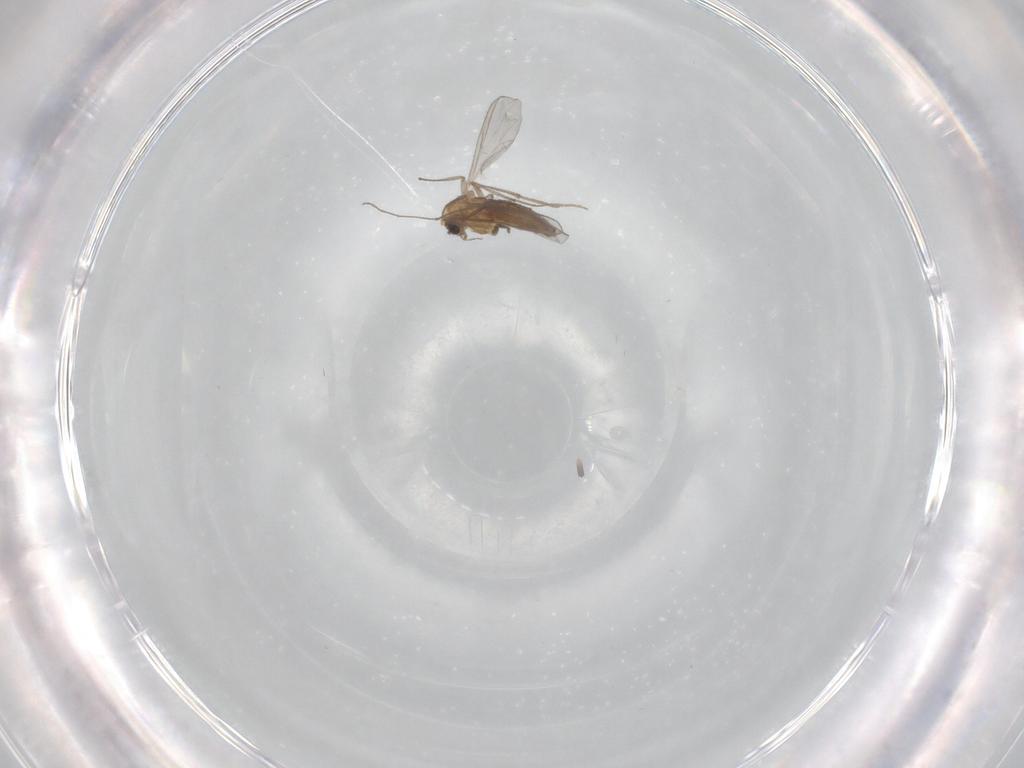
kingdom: Animalia
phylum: Arthropoda
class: Insecta
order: Diptera
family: Chironomidae
